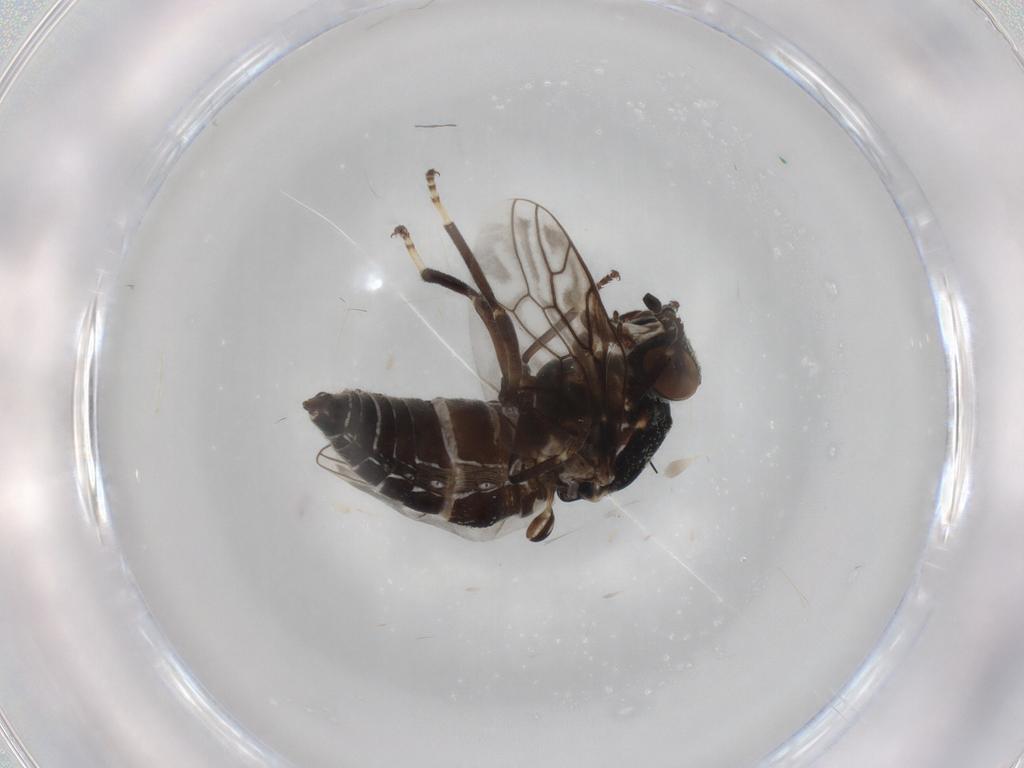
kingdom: Animalia
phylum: Arthropoda
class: Insecta
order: Diptera
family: Scenopinidae
